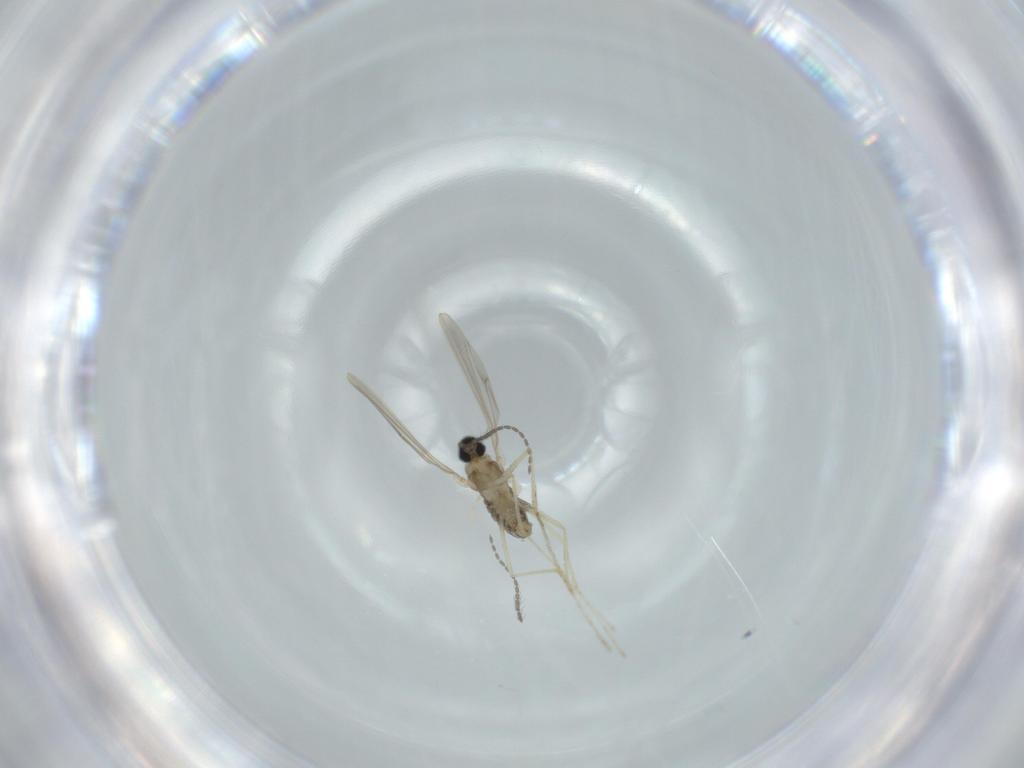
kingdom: Animalia
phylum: Arthropoda
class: Insecta
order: Diptera
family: Cecidomyiidae
